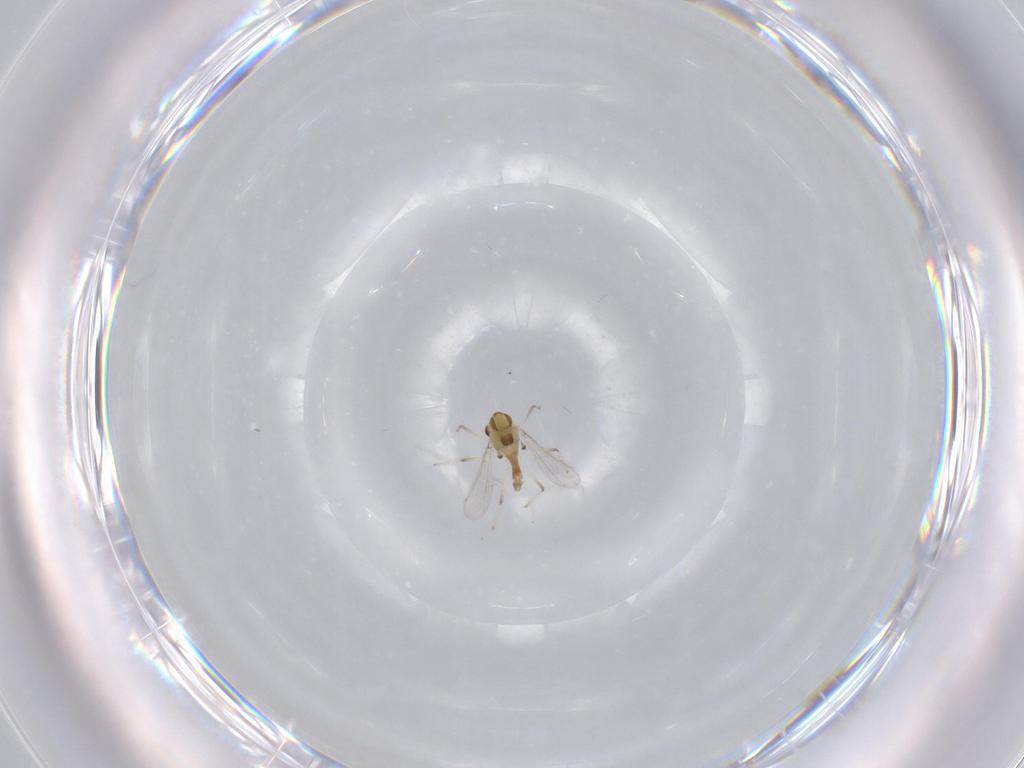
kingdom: Animalia
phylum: Arthropoda
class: Insecta
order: Diptera
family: Chironomidae
